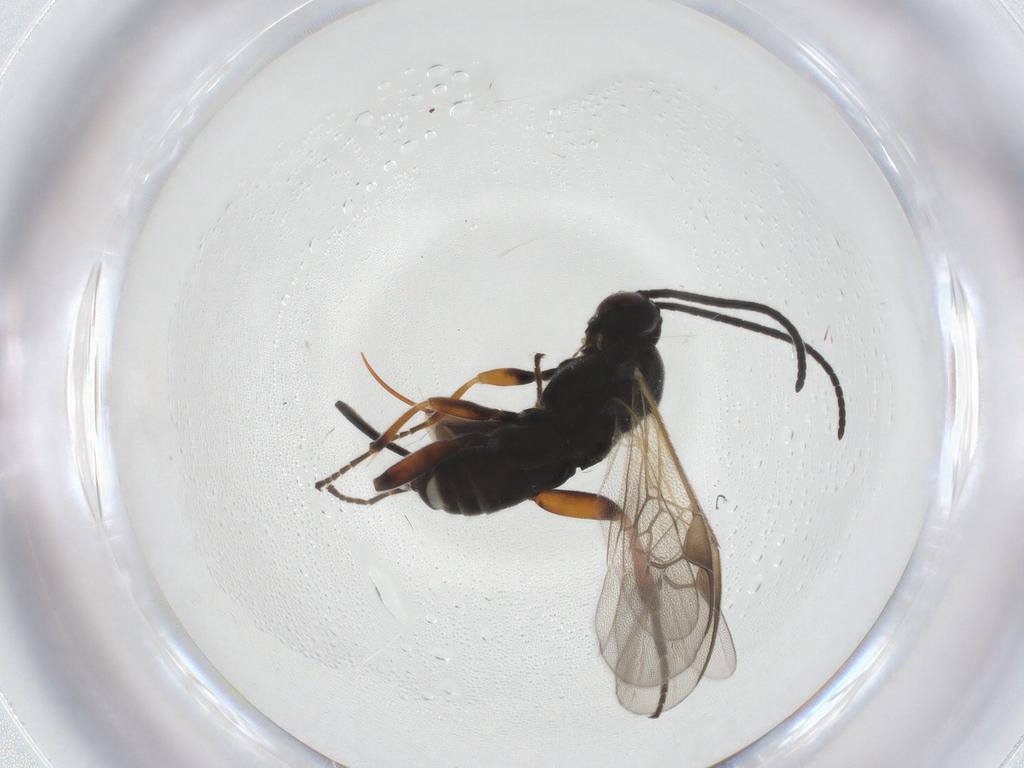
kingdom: Animalia
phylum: Arthropoda
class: Insecta
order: Hymenoptera
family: Braconidae
